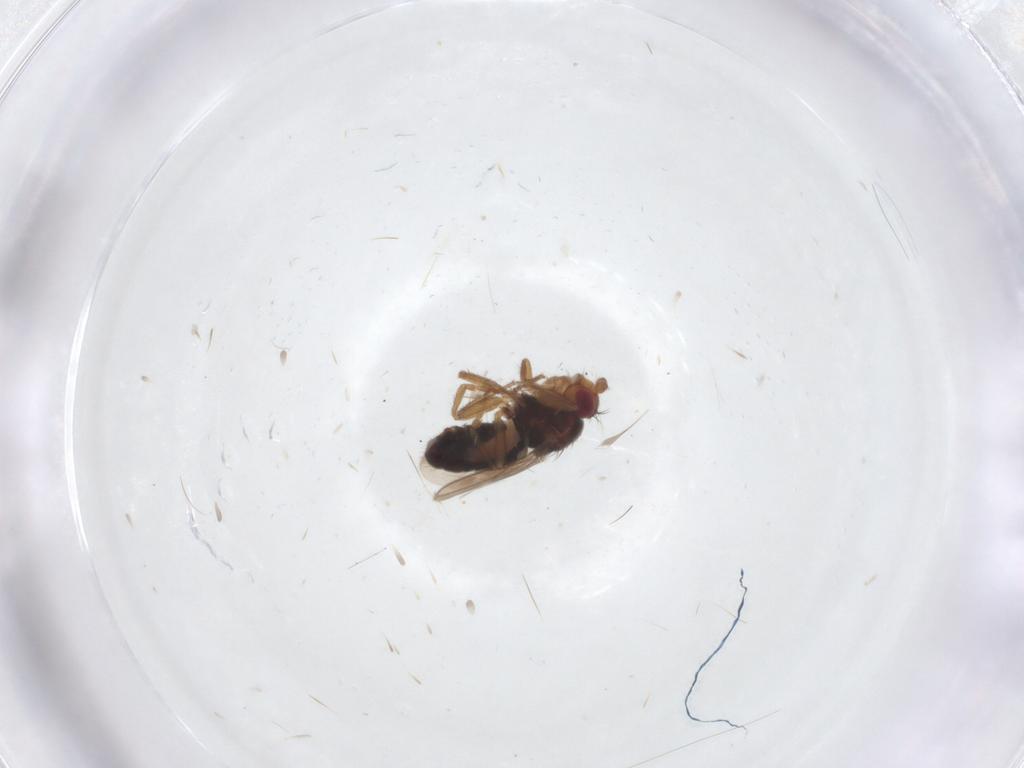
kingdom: Animalia
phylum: Arthropoda
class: Insecta
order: Diptera
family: Sphaeroceridae
